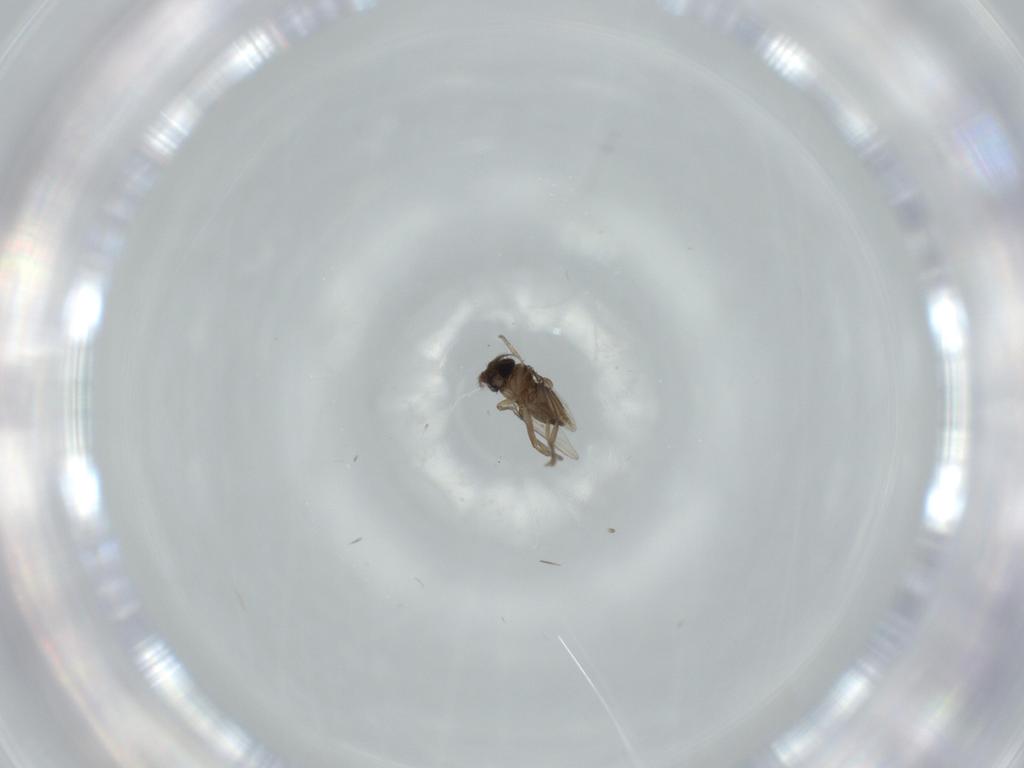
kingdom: Animalia
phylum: Arthropoda
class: Insecta
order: Diptera
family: Phoridae
